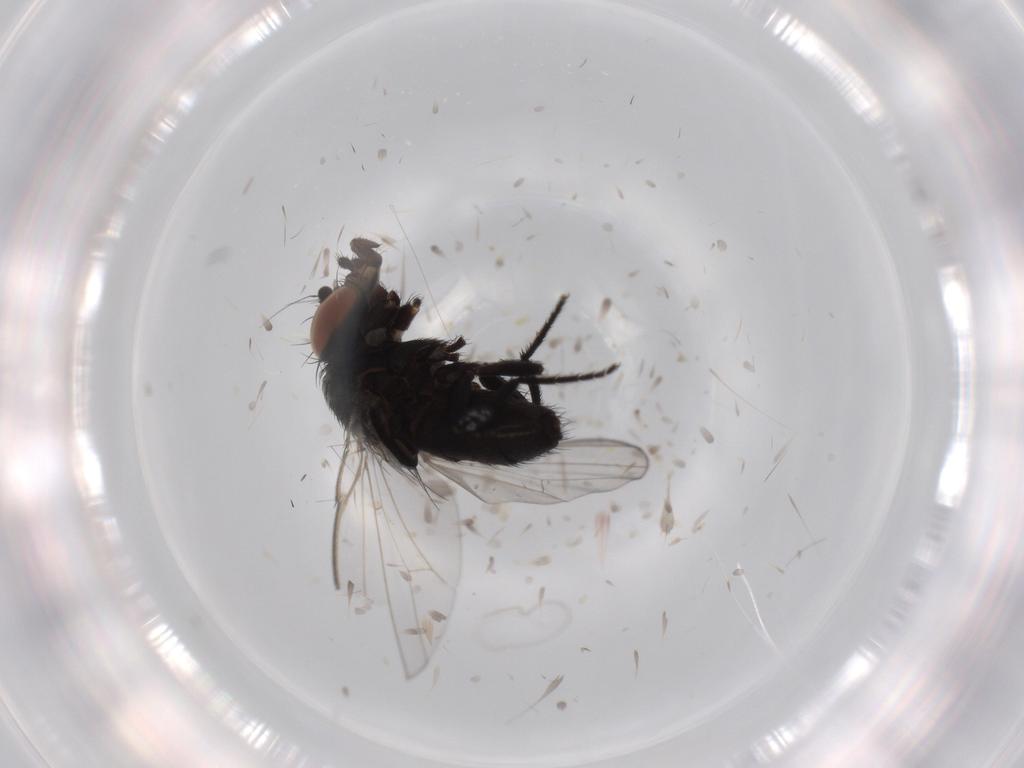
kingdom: Animalia
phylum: Arthropoda
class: Insecta
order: Diptera
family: Milichiidae
